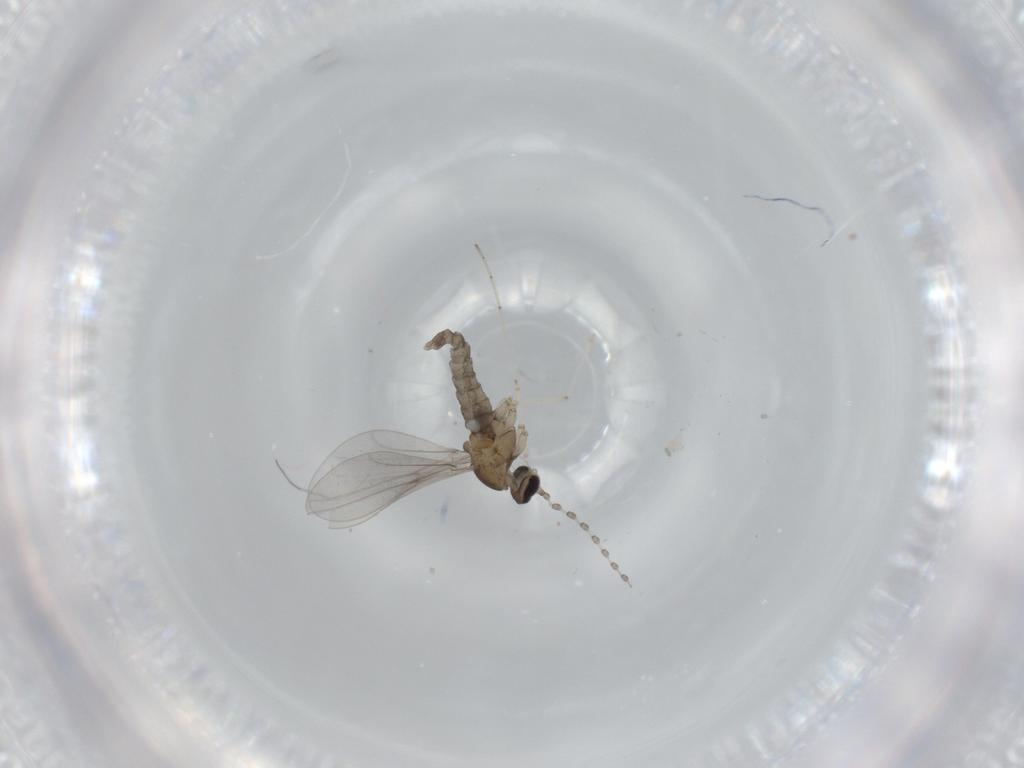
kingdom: Animalia
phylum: Arthropoda
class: Insecta
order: Diptera
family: Cecidomyiidae
